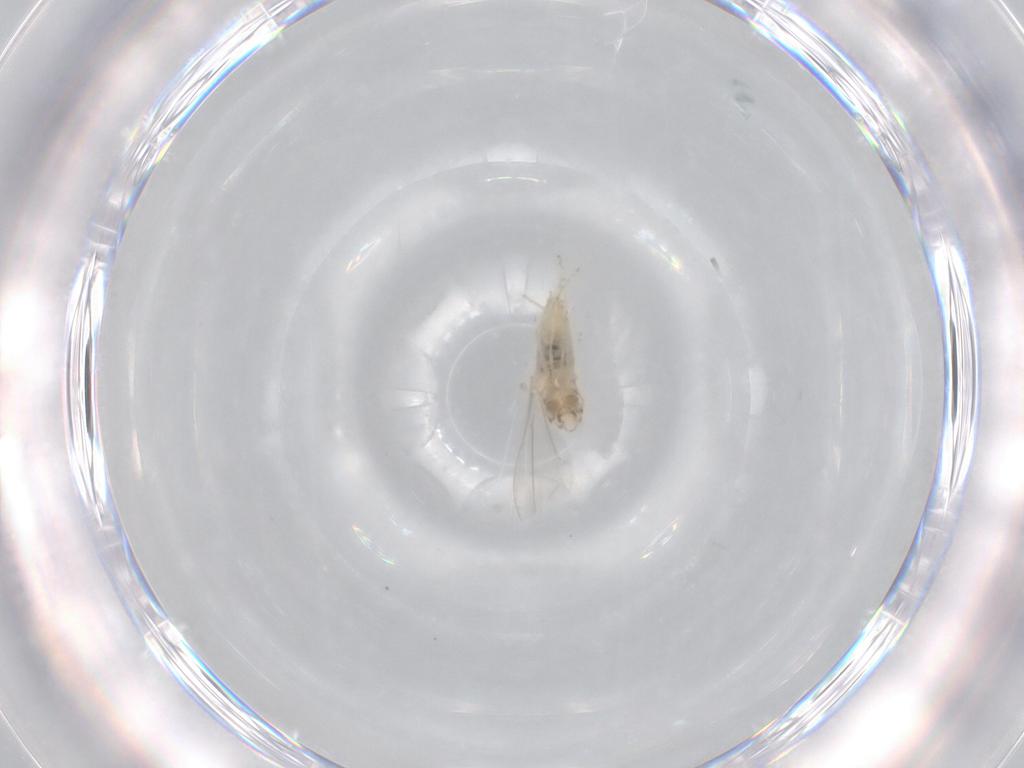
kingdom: Animalia
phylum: Arthropoda
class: Insecta
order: Diptera
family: Cecidomyiidae
